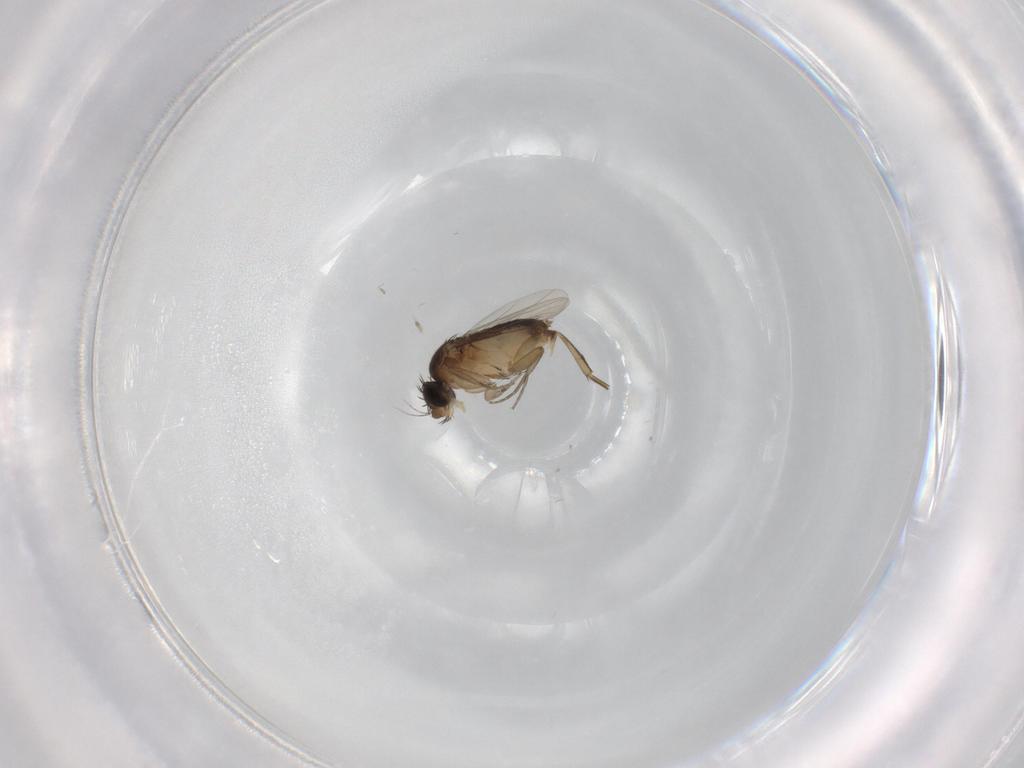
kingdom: Animalia
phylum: Arthropoda
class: Insecta
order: Diptera
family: Phoridae
